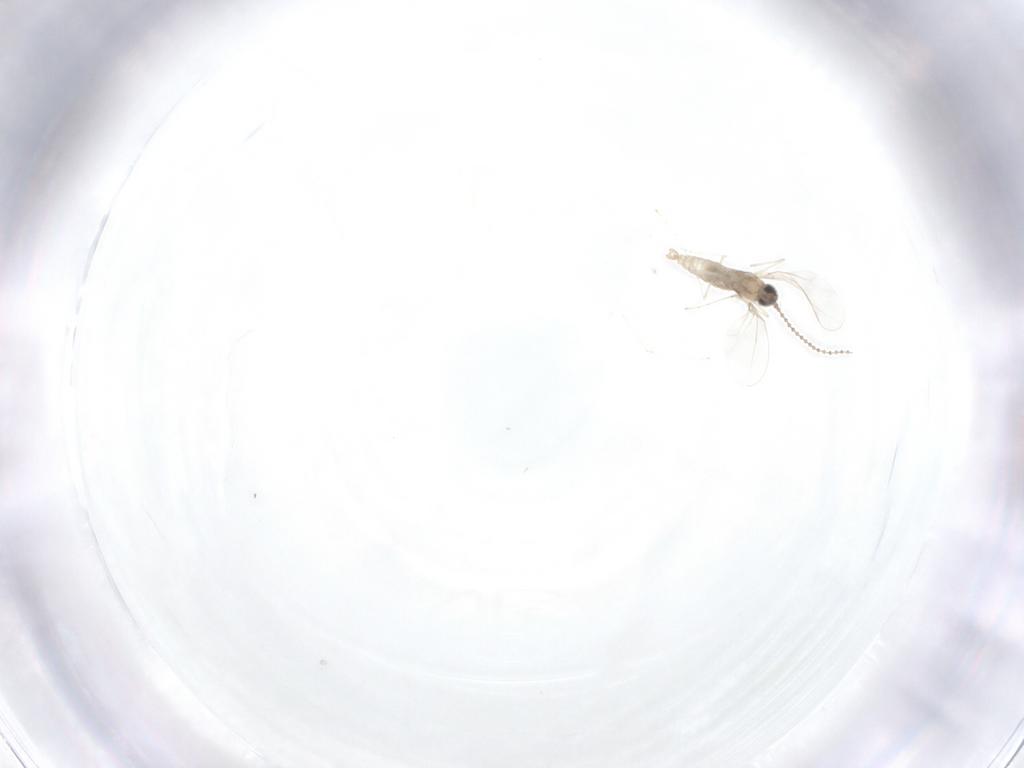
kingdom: Animalia
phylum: Arthropoda
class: Insecta
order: Diptera
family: Cecidomyiidae
